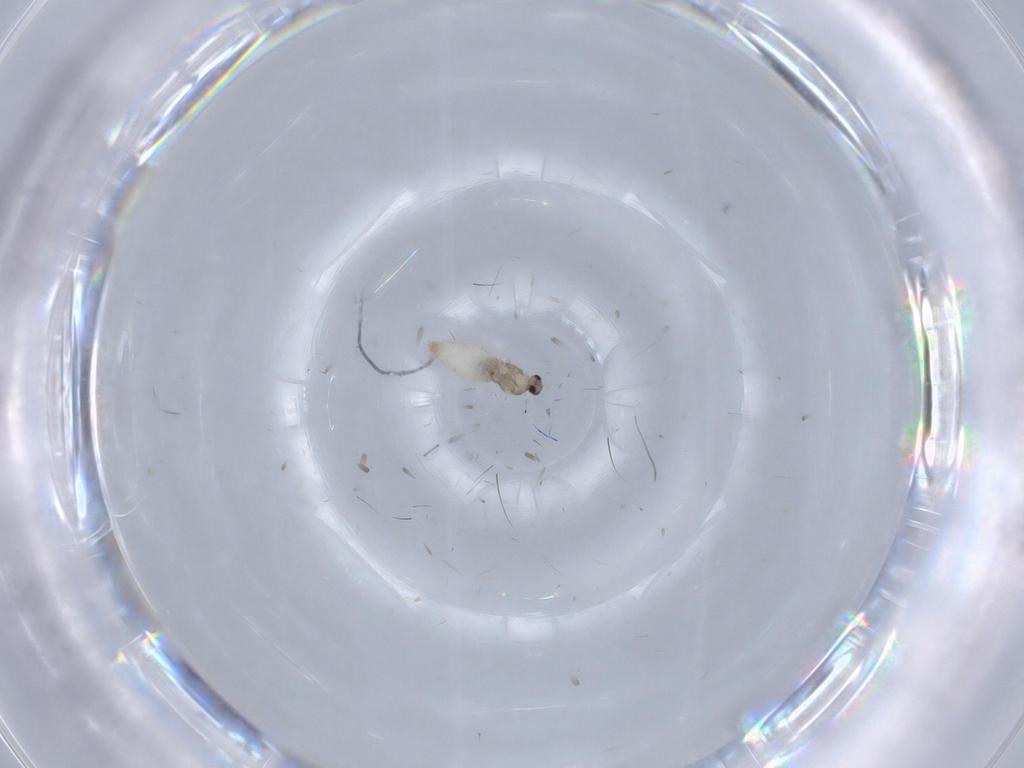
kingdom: Animalia
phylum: Arthropoda
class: Insecta
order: Diptera
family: Cecidomyiidae
